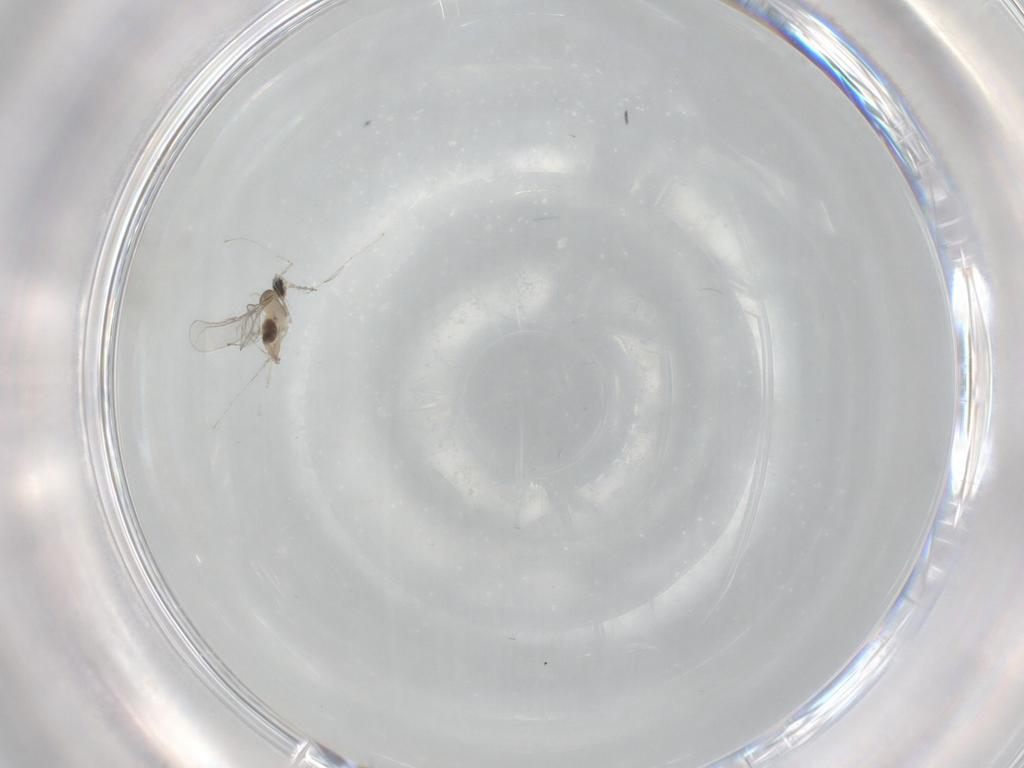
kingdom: Animalia
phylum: Arthropoda
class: Insecta
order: Diptera
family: Cecidomyiidae
